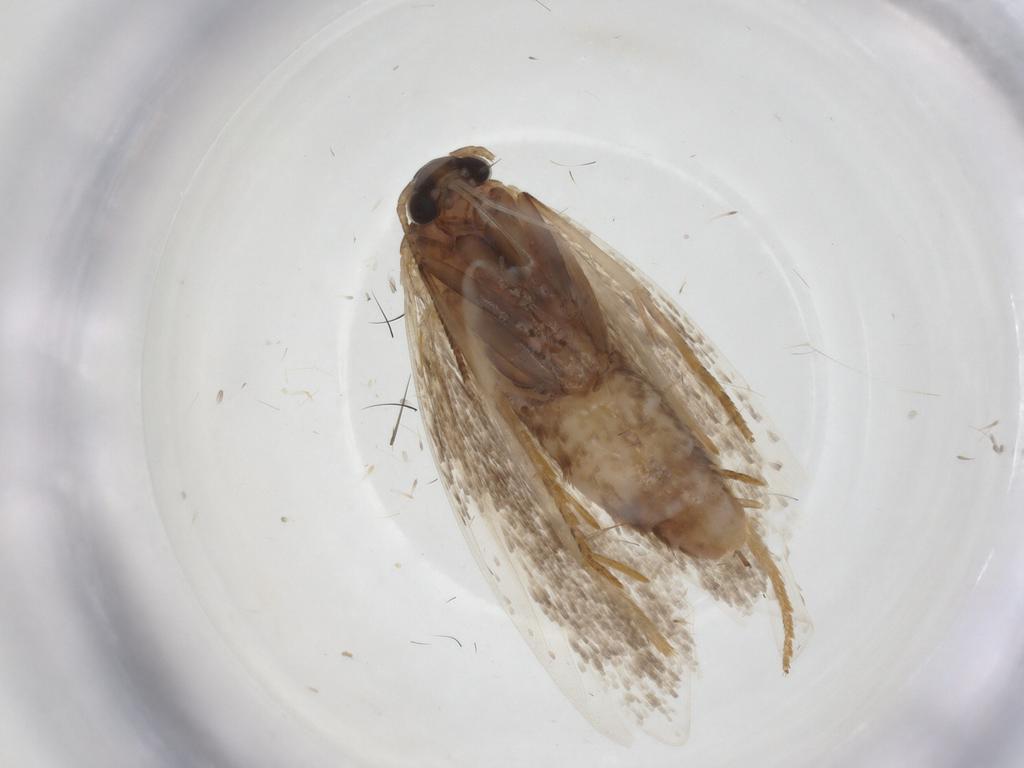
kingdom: Animalia
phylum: Arthropoda
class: Insecta
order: Lepidoptera
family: Autostichidae
